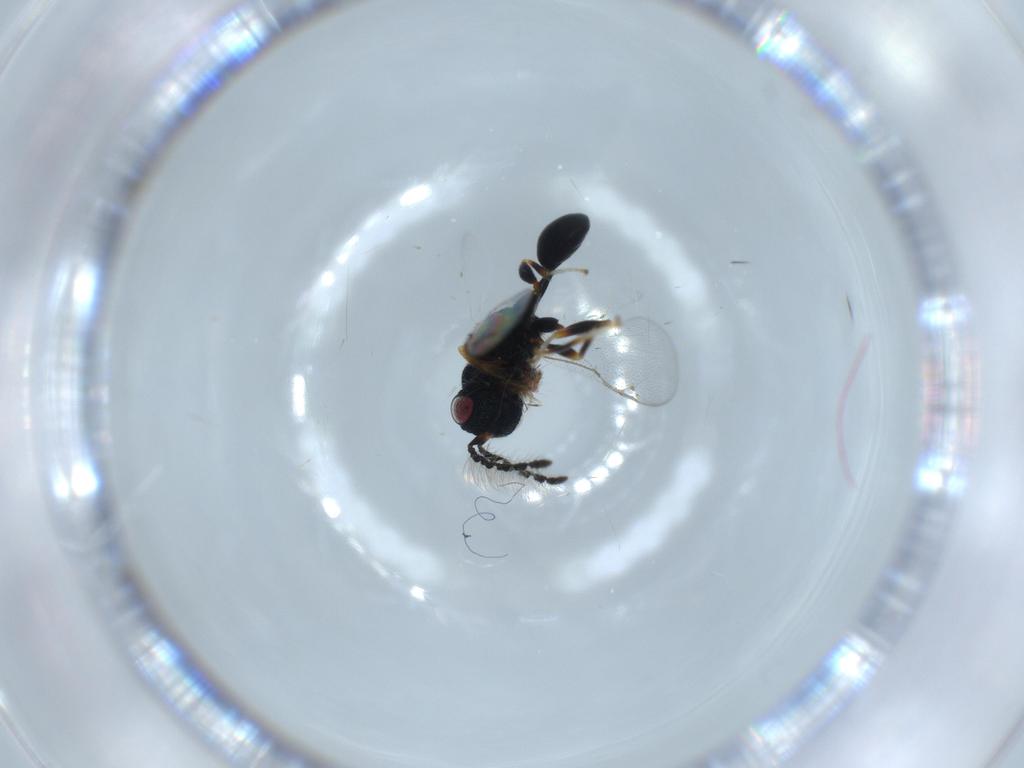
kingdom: Animalia
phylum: Arthropoda
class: Insecta
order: Hymenoptera
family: Eurytomidae
